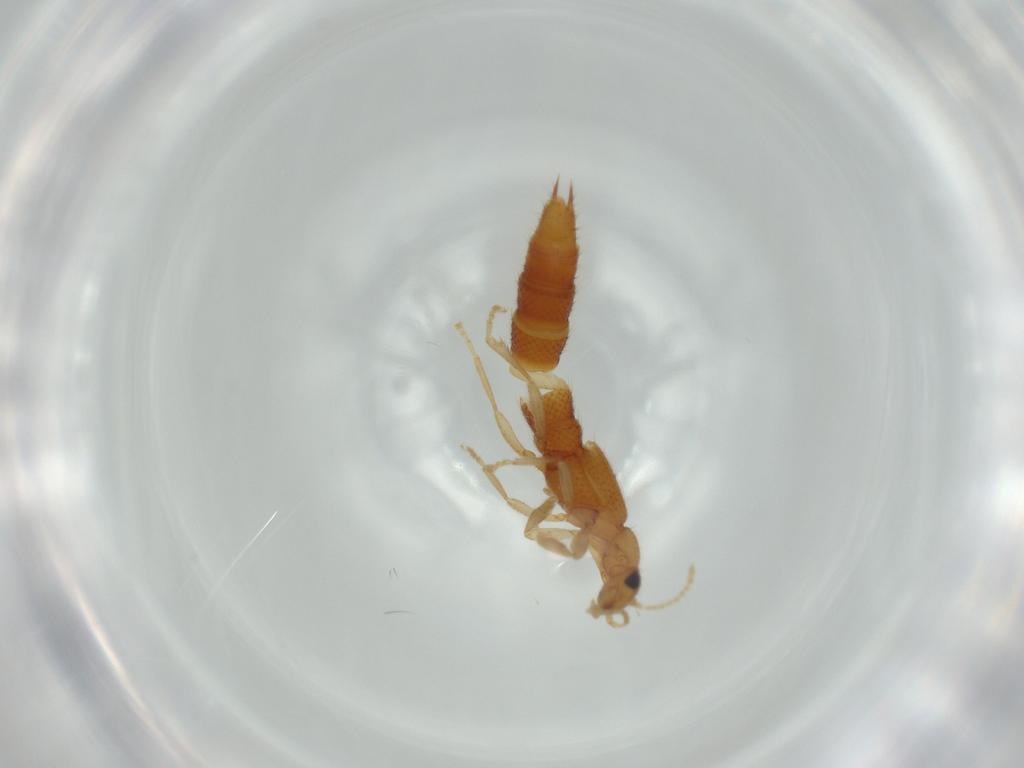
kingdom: Animalia
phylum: Arthropoda
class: Insecta
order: Coleoptera
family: Staphylinidae
